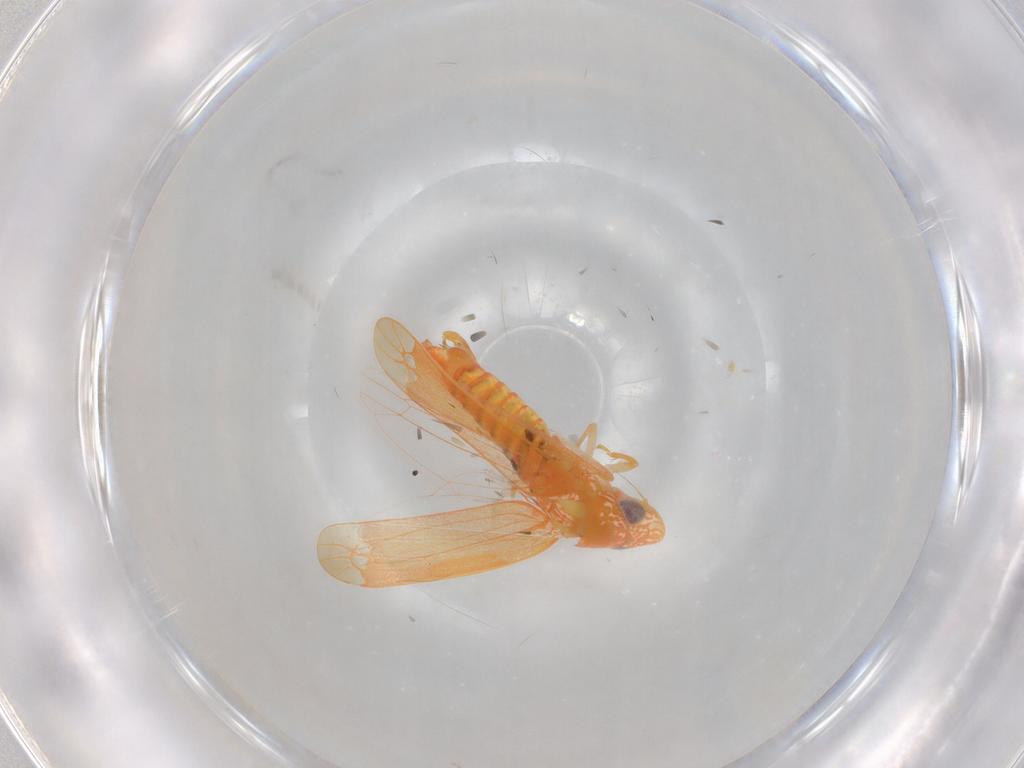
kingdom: Animalia
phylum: Arthropoda
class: Insecta
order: Hemiptera
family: Cicadellidae
